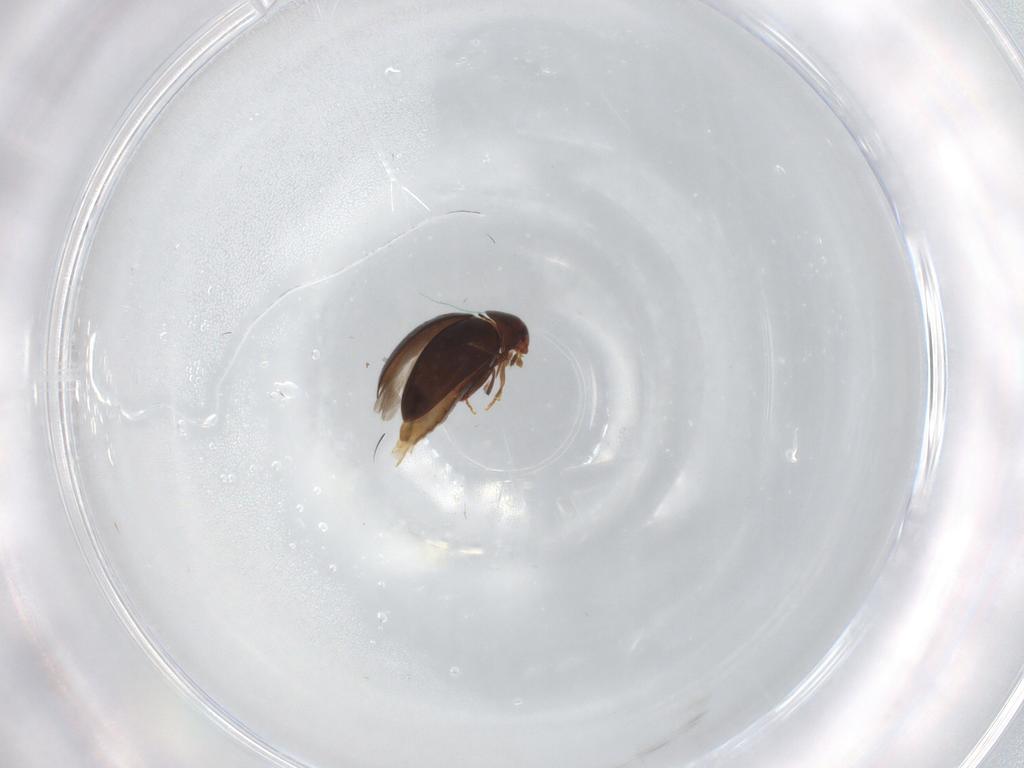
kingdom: Animalia
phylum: Arthropoda
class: Insecta
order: Coleoptera
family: Melandryidae
